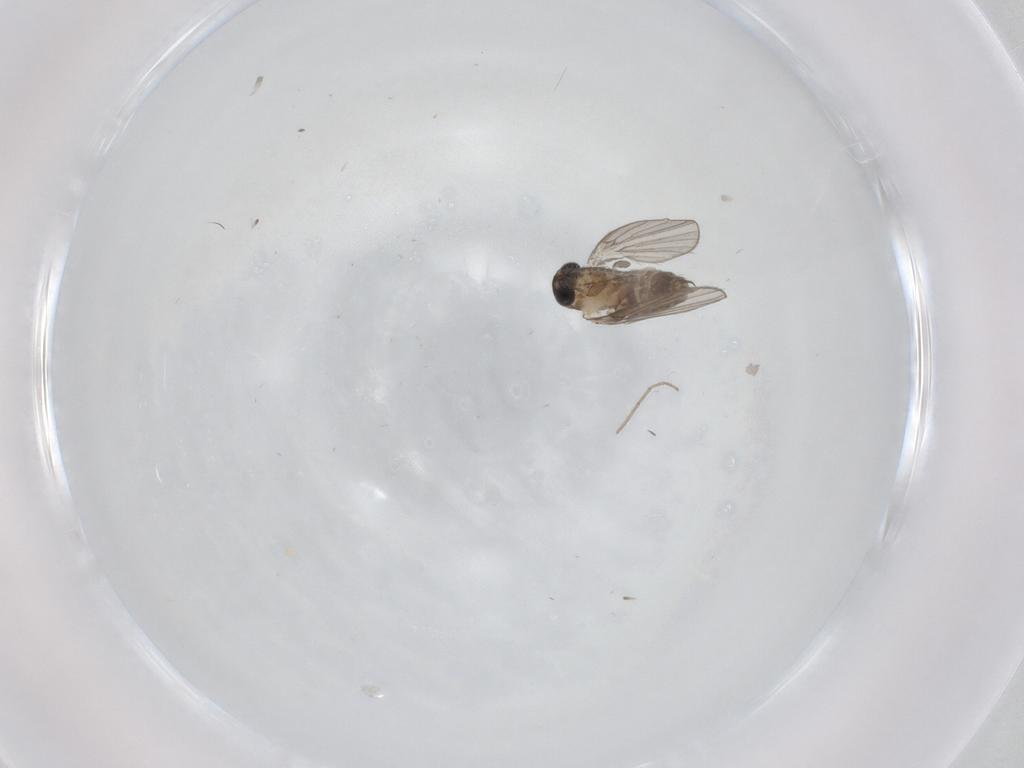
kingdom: Animalia
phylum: Arthropoda
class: Insecta
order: Diptera
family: Psychodidae
